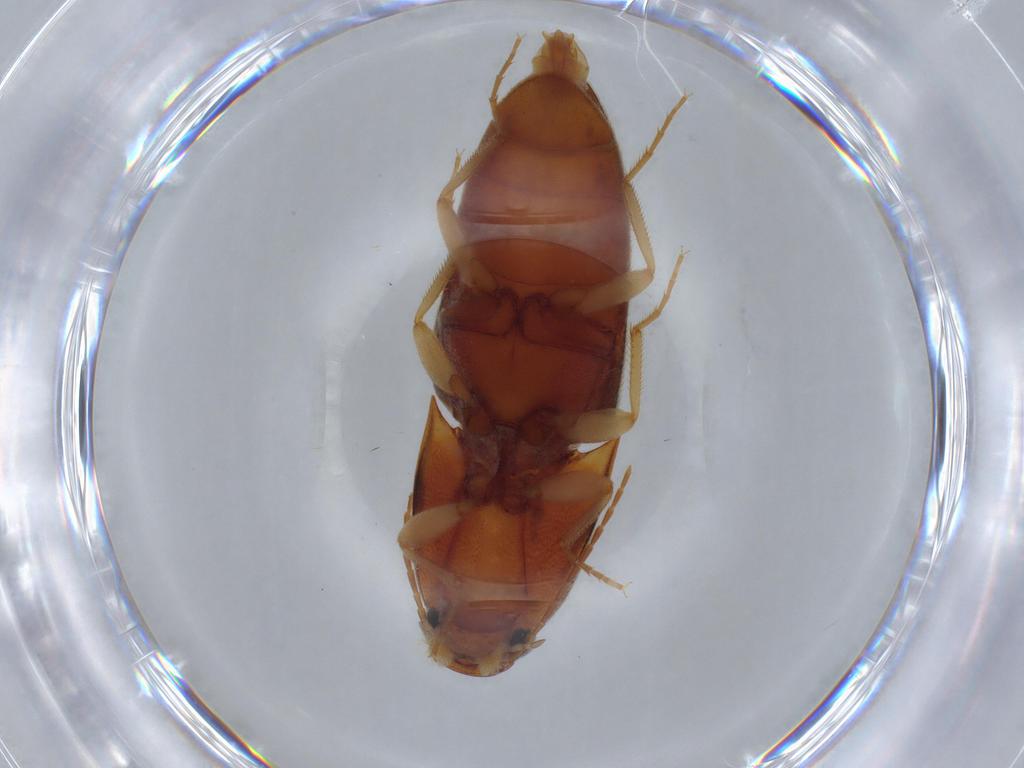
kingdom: Animalia
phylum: Arthropoda
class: Insecta
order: Coleoptera
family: Elateridae
